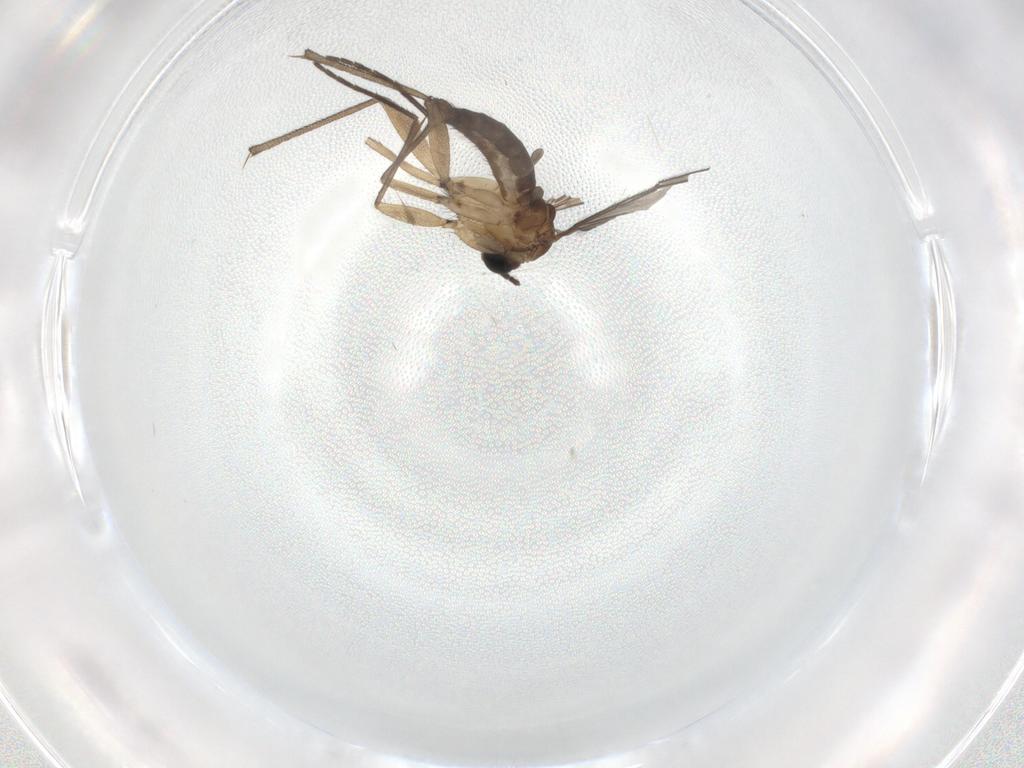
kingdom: Animalia
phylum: Arthropoda
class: Insecta
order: Diptera
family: Sciaridae
